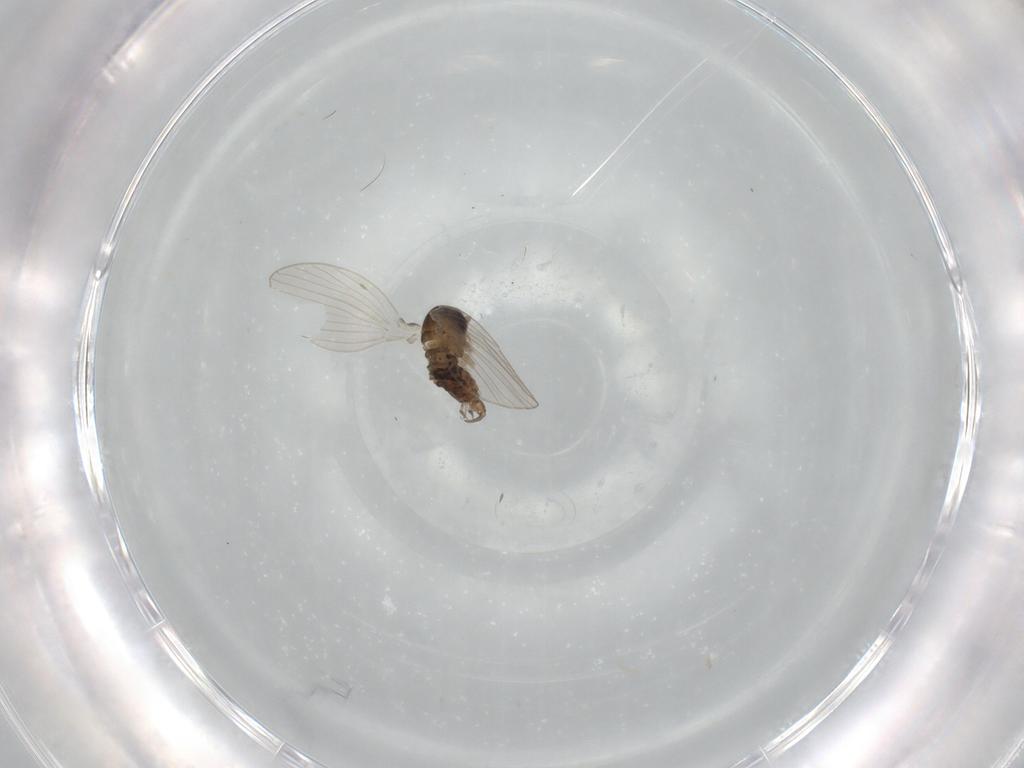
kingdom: Animalia
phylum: Arthropoda
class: Insecta
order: Diptera
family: Psychodidae
